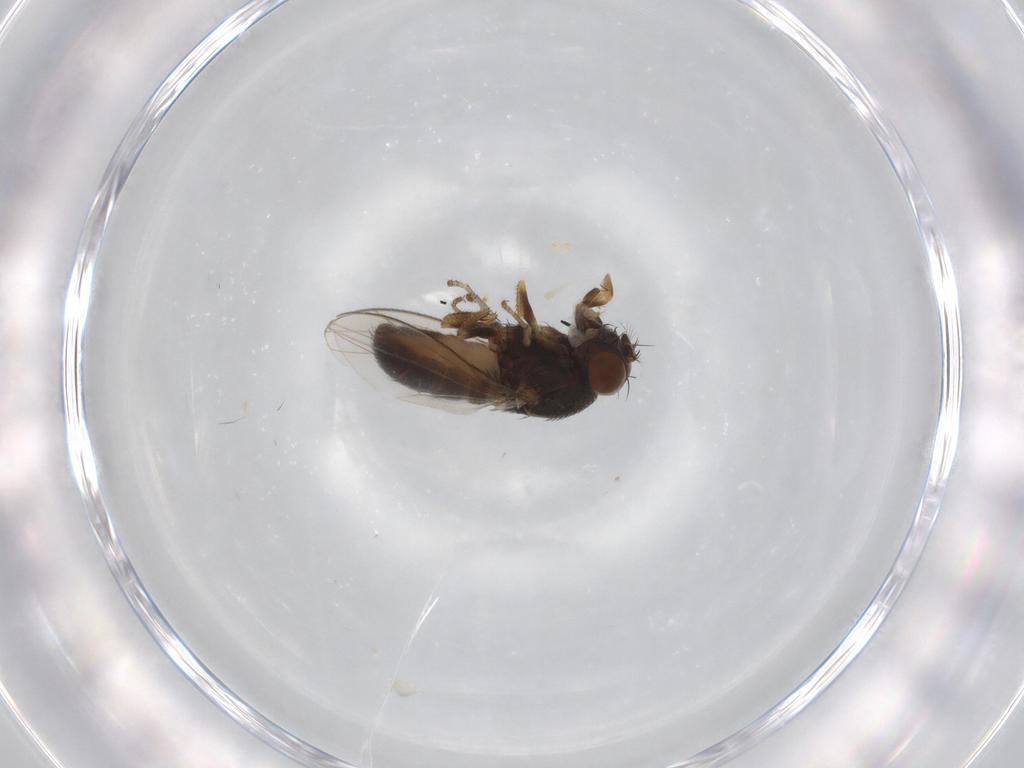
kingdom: Animalia
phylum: Arthropoda
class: Insecta
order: Diptera
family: Ephydridae
